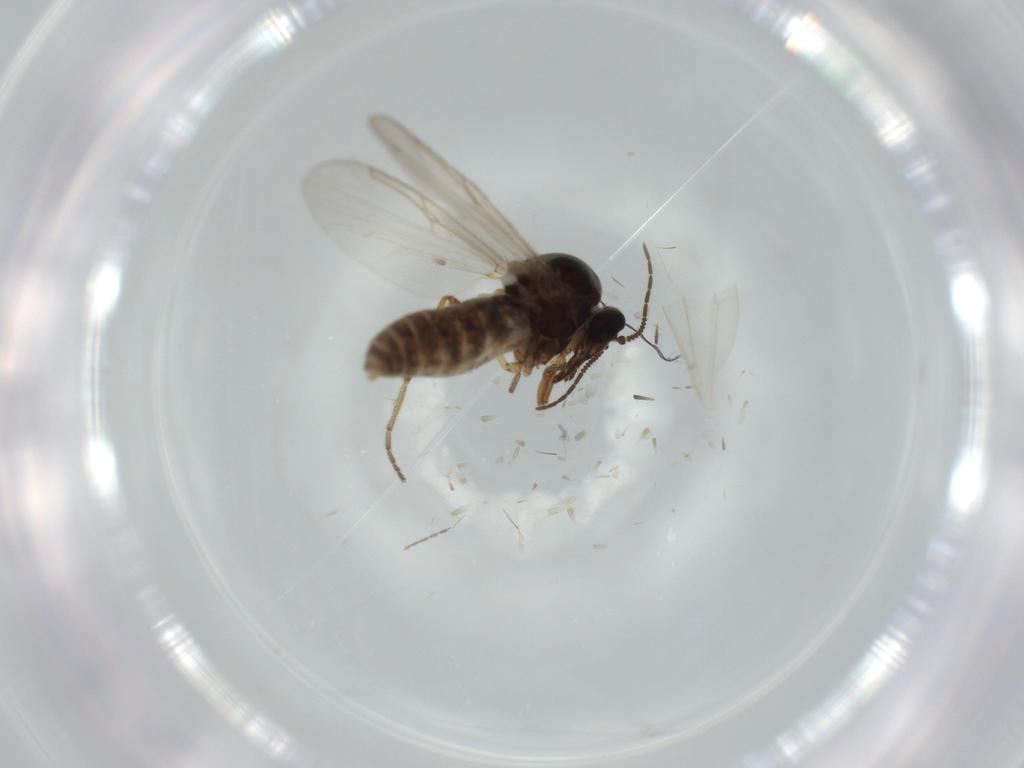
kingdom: Animalia
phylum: Arthropoda
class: Insecta
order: Diptera
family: Ceratopogonidae
